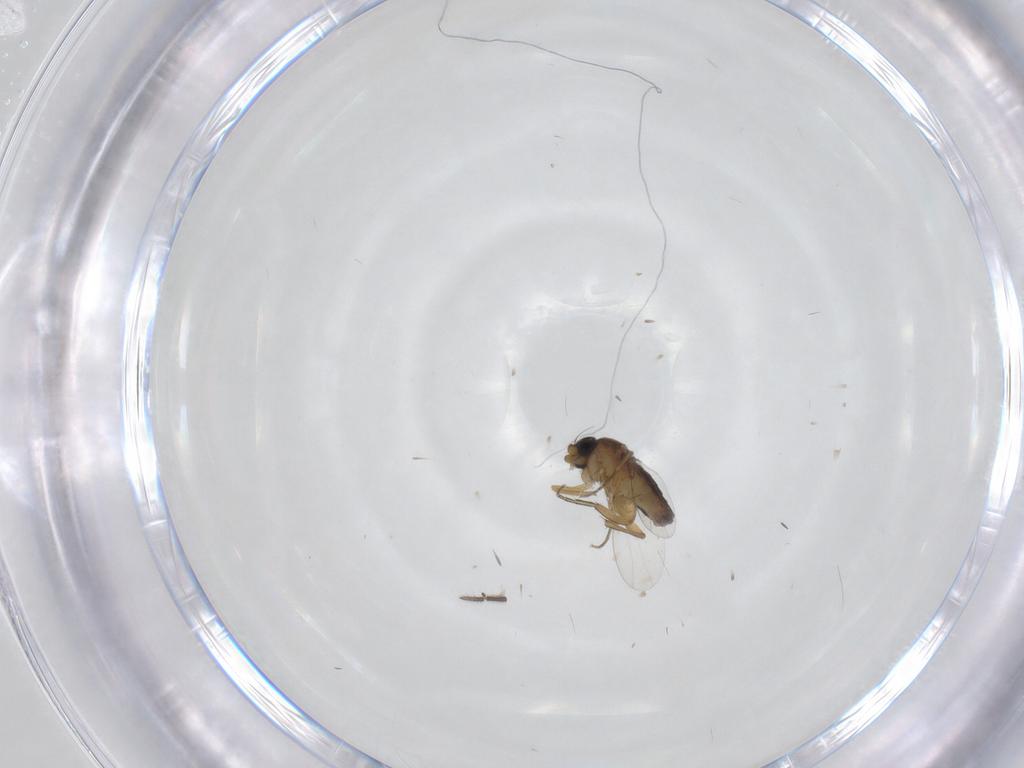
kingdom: Animalia
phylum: Arthropoda
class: Insecta
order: Diptera
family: Sciaridae
